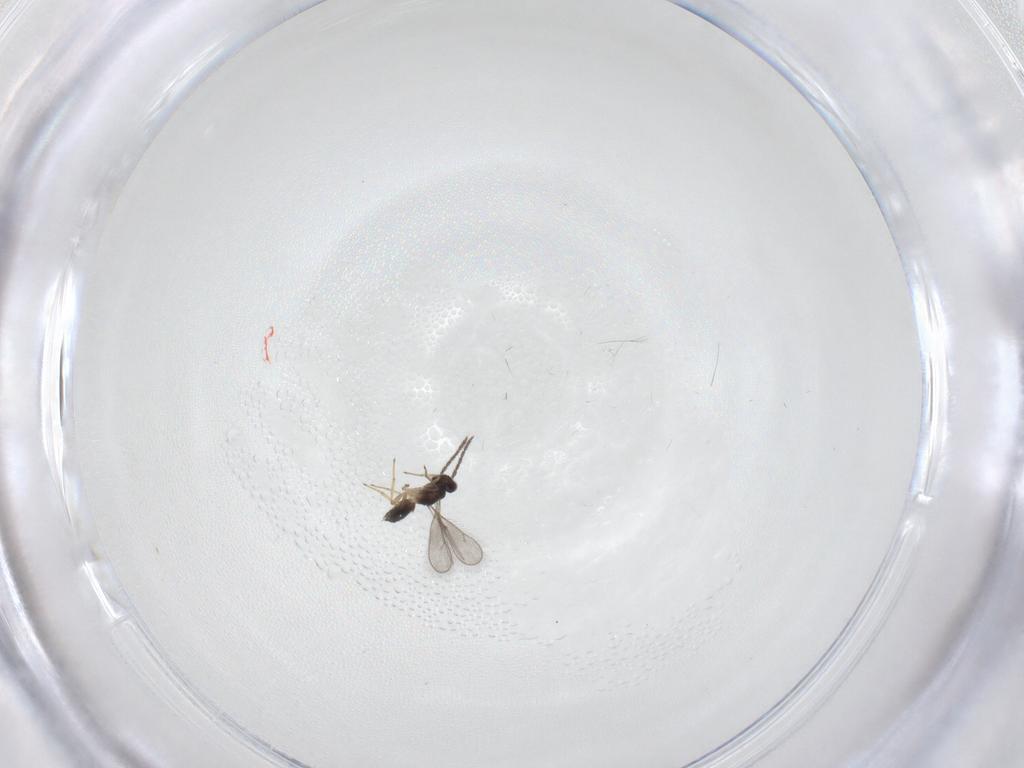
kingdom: Animalia
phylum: Arthropoda
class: Insecta
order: Hymenoptera
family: Eulophidae
